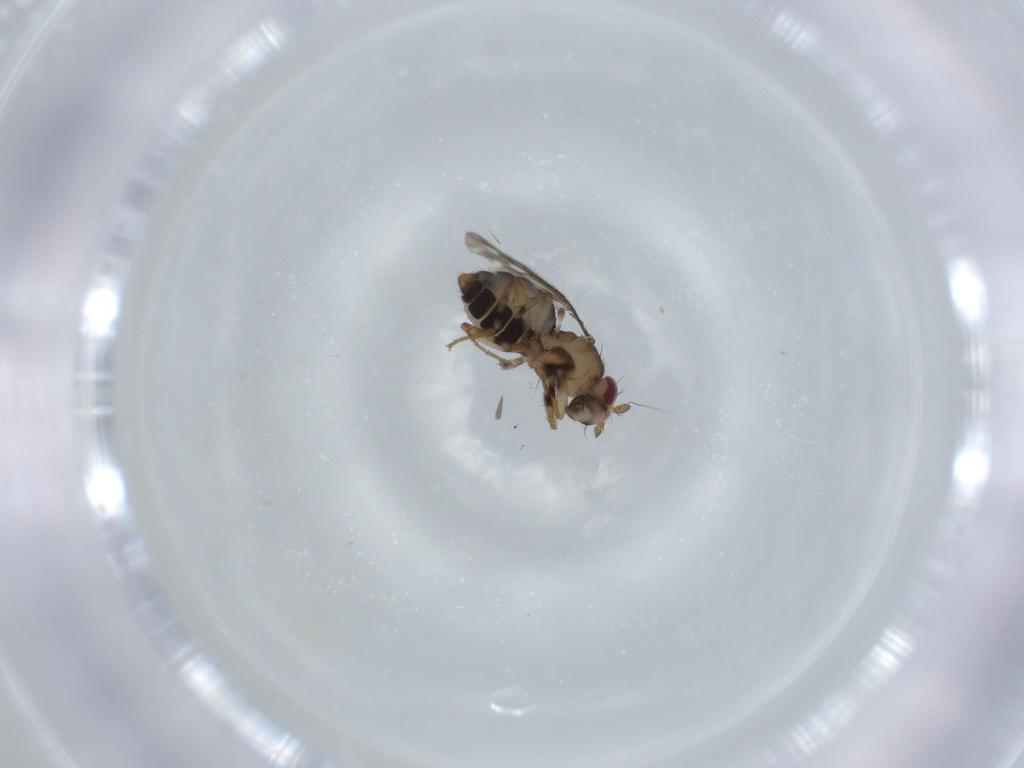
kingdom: Animalia
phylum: Arthropoda
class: Insecta
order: Diptera
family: Chironomidae
